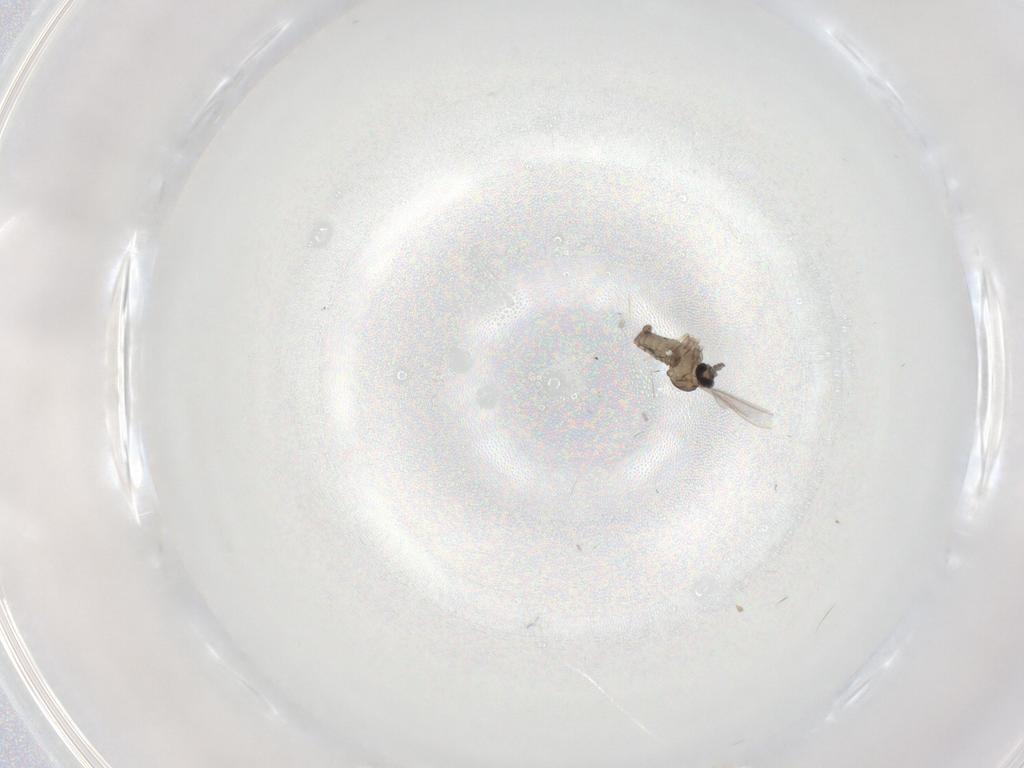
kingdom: Animalia
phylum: Arthropoda
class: Insecta
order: Diptera
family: Cecidomyiidae
